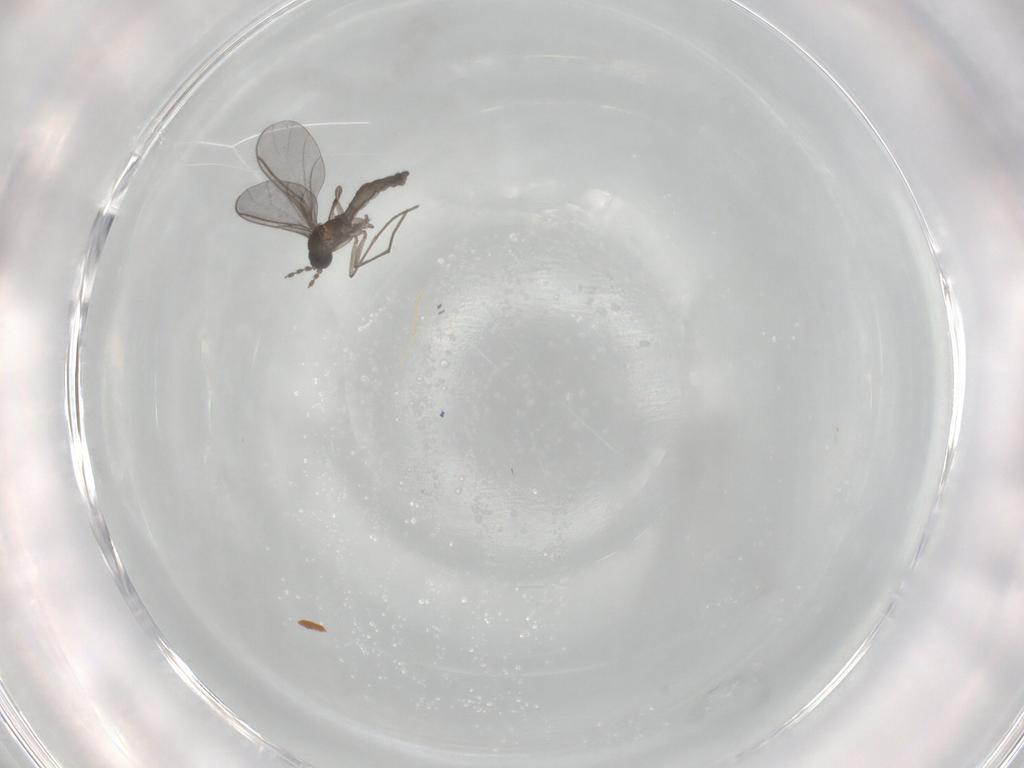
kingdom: Animalia
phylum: Arthropoda
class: Insecta
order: Diptera
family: Sciaridae
